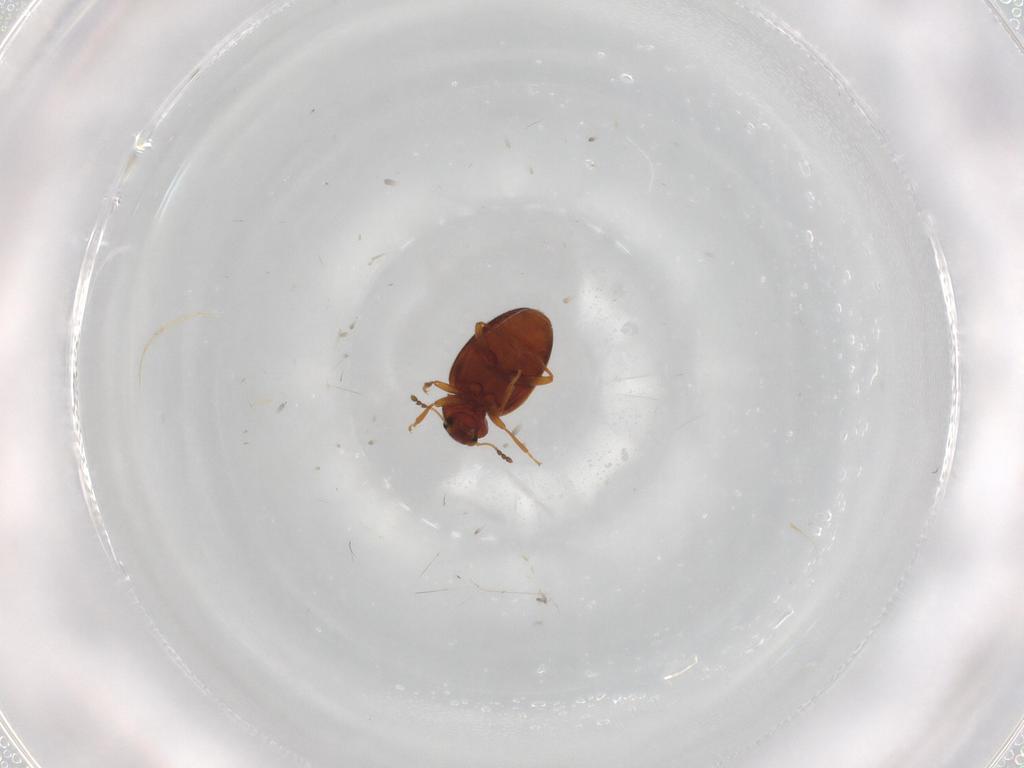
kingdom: Animalia
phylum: Arthropoda
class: Insecta
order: Coleoptera
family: Latridiidae
